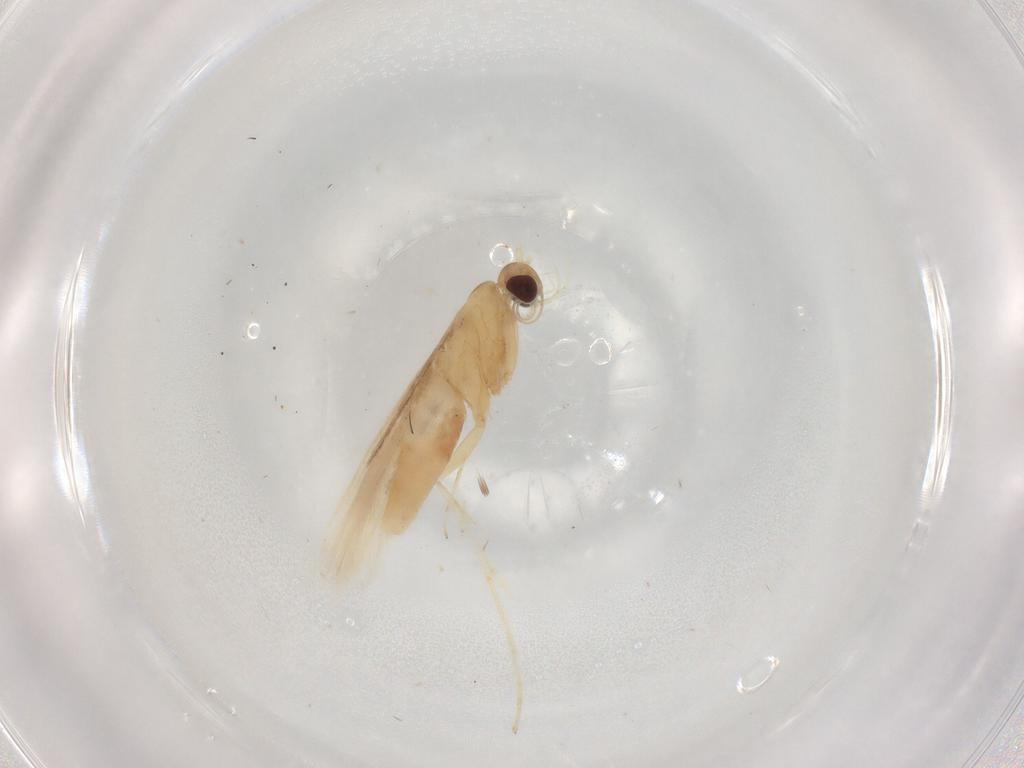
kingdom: Animalia
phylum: Arthropoda
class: Insecta
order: Lepidoptera
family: Gracillariidae
